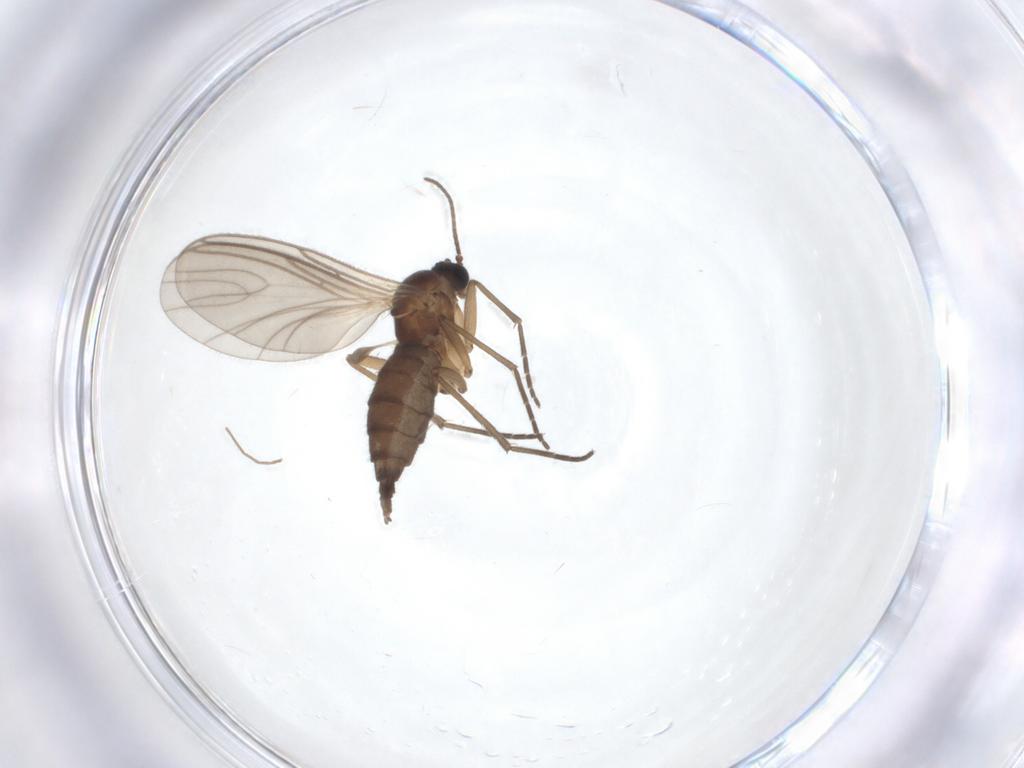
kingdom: Animalia
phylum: Arthropoda
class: Insecta
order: Diptera
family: Sciaridae
